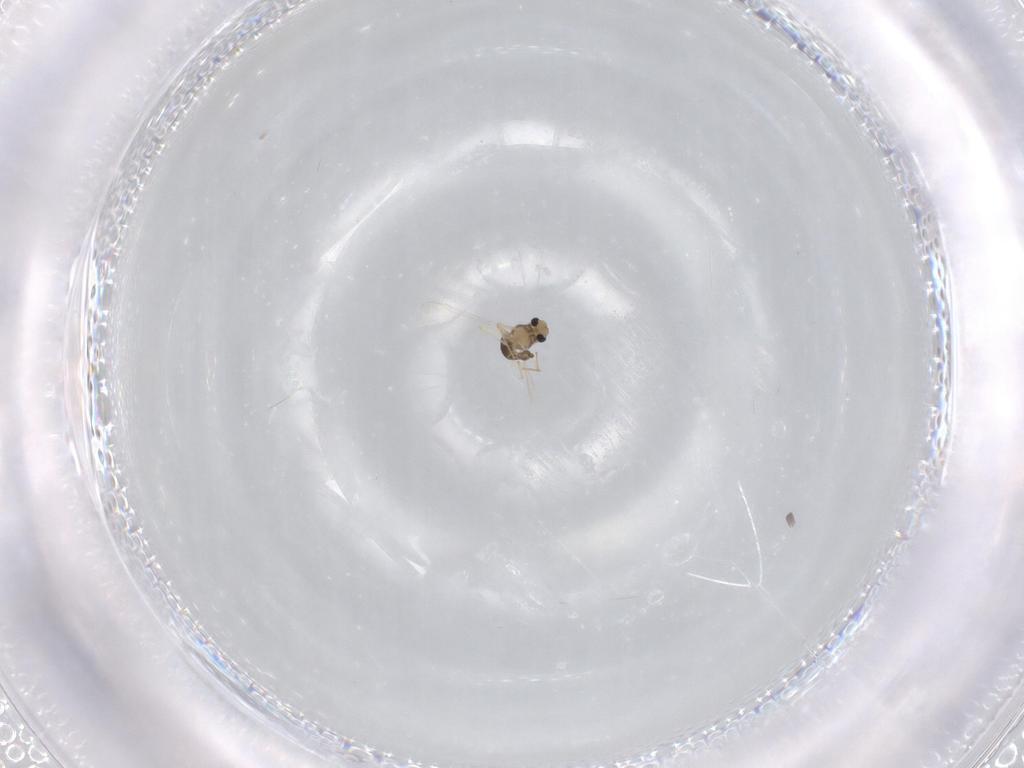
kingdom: Animalia
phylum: Arthropoda
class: Insecta
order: Diptera
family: Chironomidae
